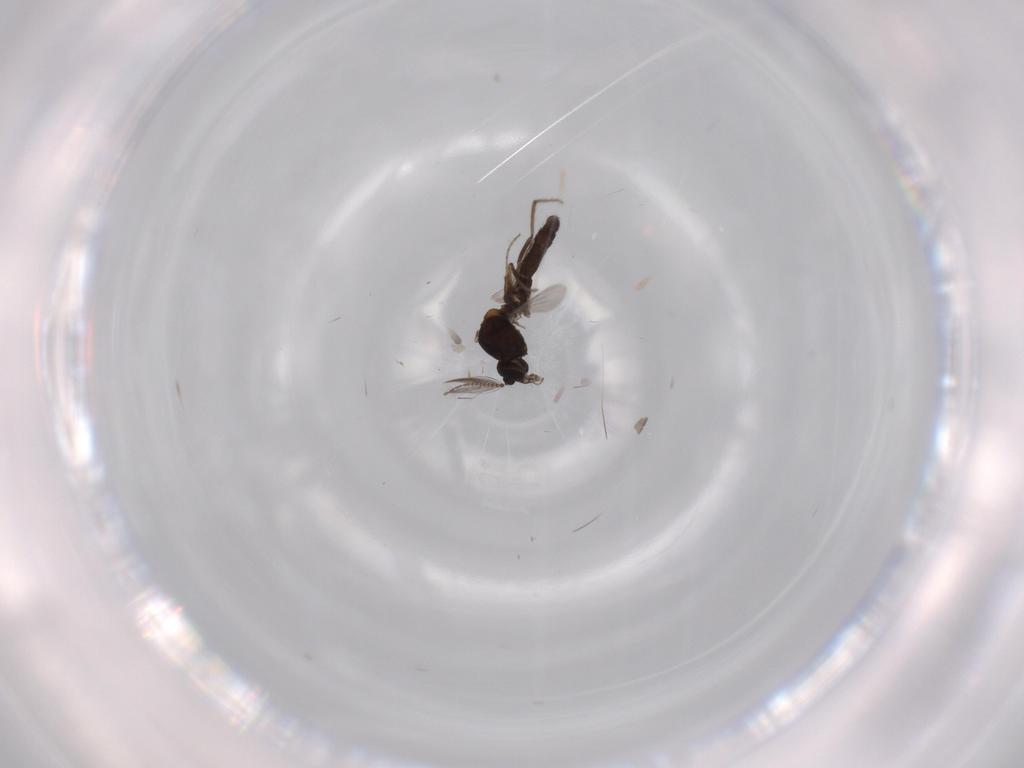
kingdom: Animalia
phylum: Arthropoda
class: Insecta
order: Diptera
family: Ceratopogonidae
